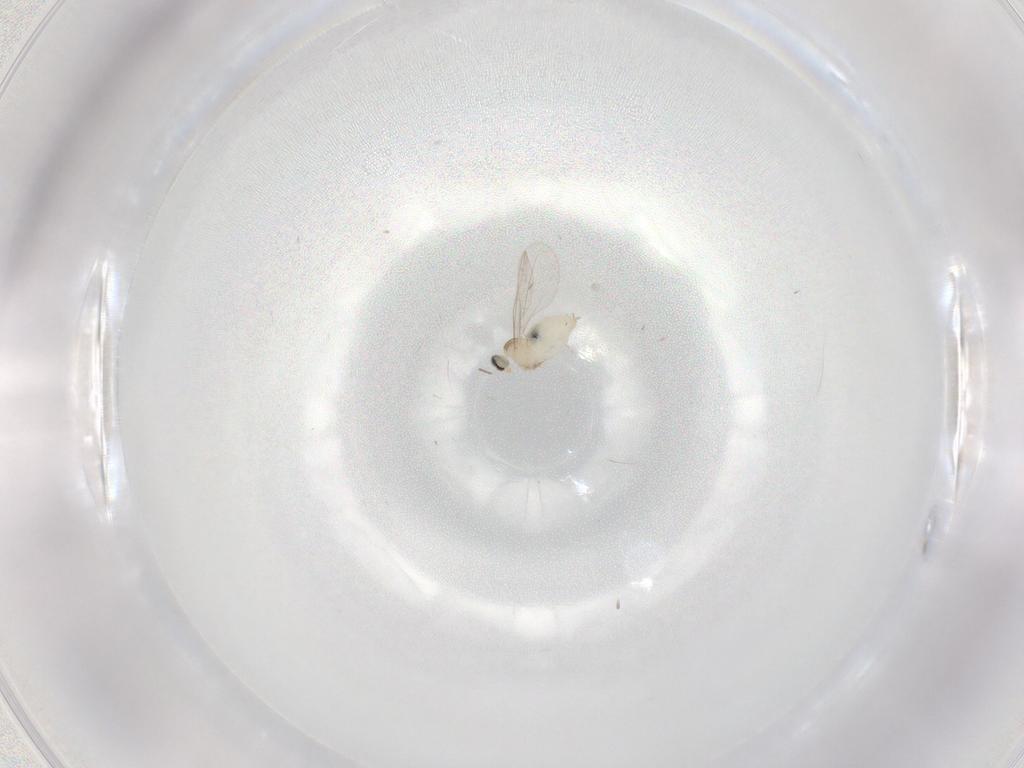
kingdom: Animalia
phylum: Arthropoda
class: Insecta
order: Diptera
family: Cecidomyiidae
